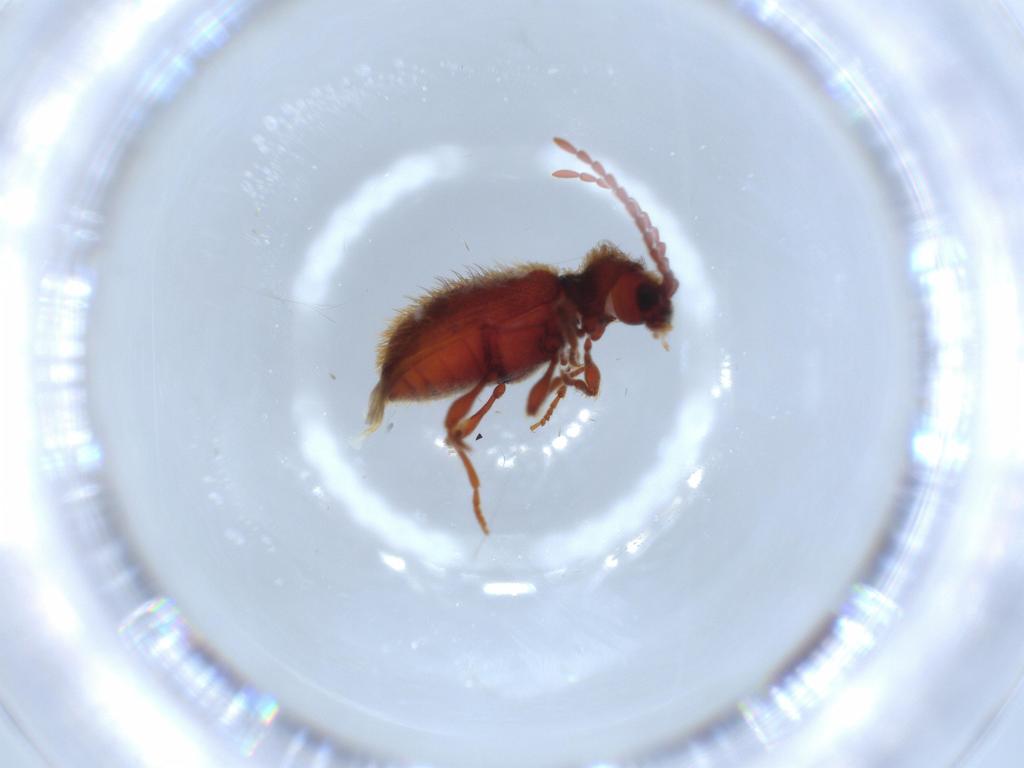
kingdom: Animalia
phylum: Arthropoda
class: Insecta
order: Coleoptera
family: Ptinidae
